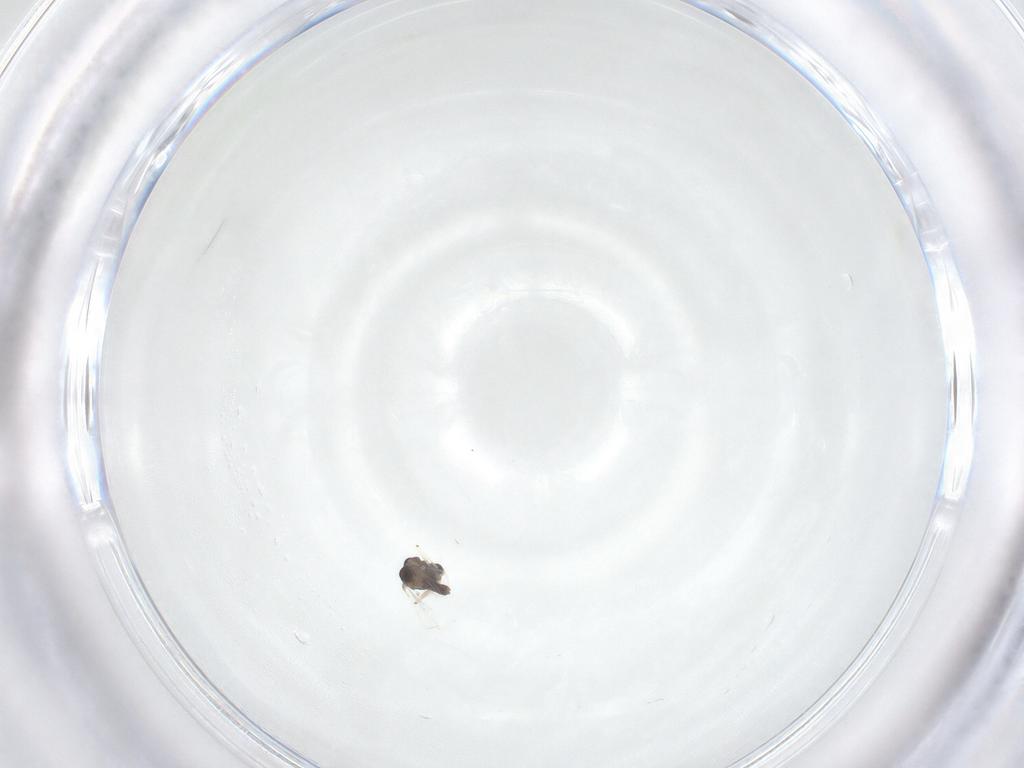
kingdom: Animalia
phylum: Arthropoda
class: Insecta
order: Diptera
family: Chironomidae
